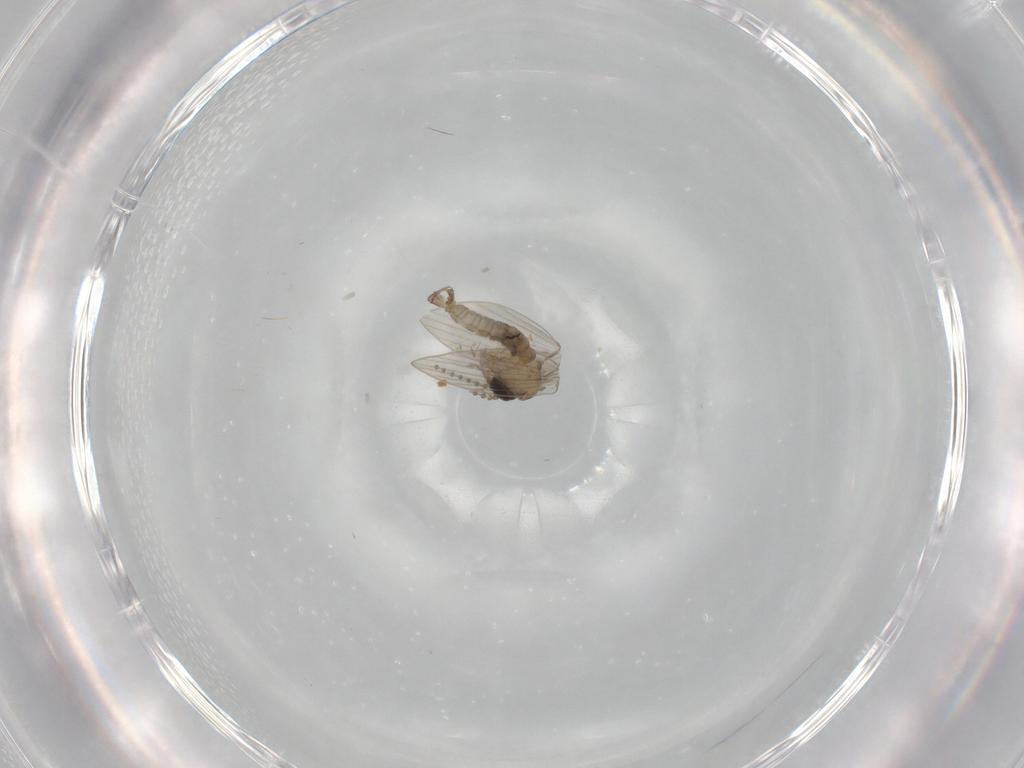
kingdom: Animalia
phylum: Arthropoda
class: Insecta
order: Diptera
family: Psychodidae
